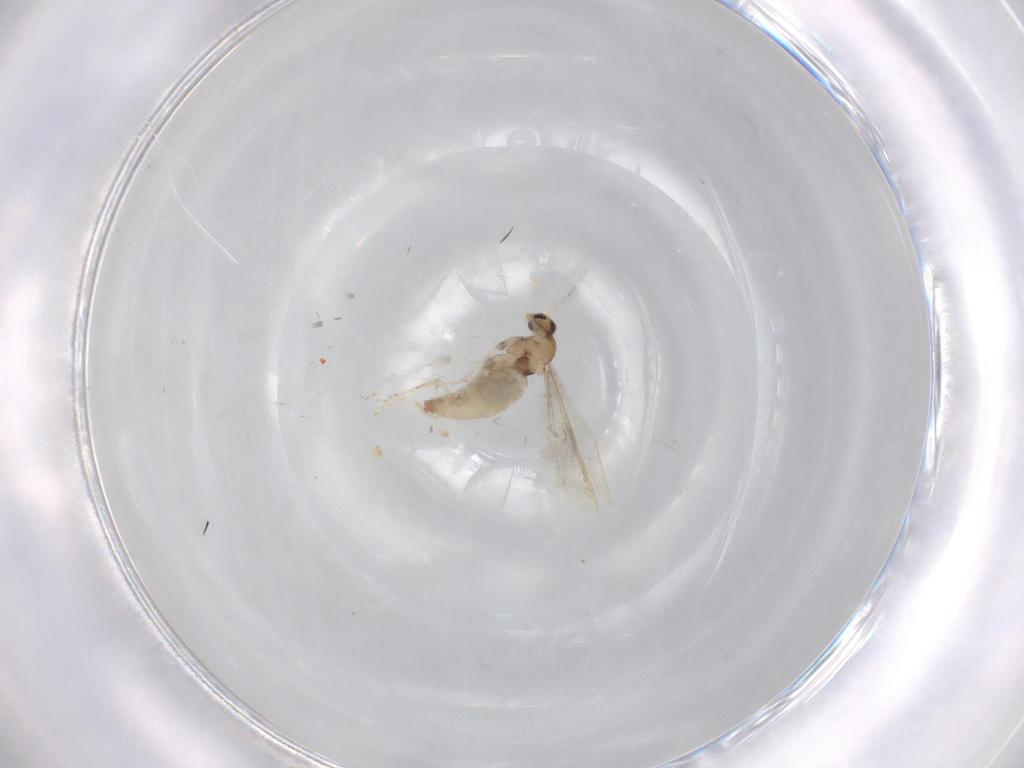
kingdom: Animalia
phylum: Arthropoda
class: Insecta
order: Diptera
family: Cecidomyiidae
